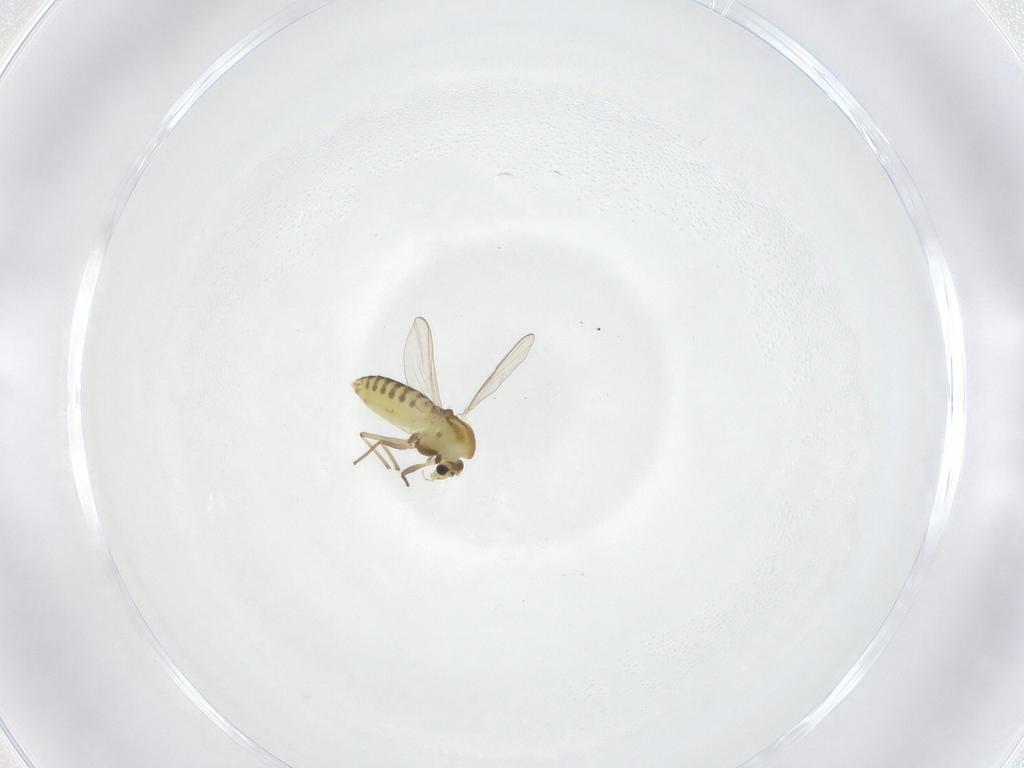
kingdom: Animalia
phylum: Arthropoda
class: Insecta
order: Diptera
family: Chironomidae
